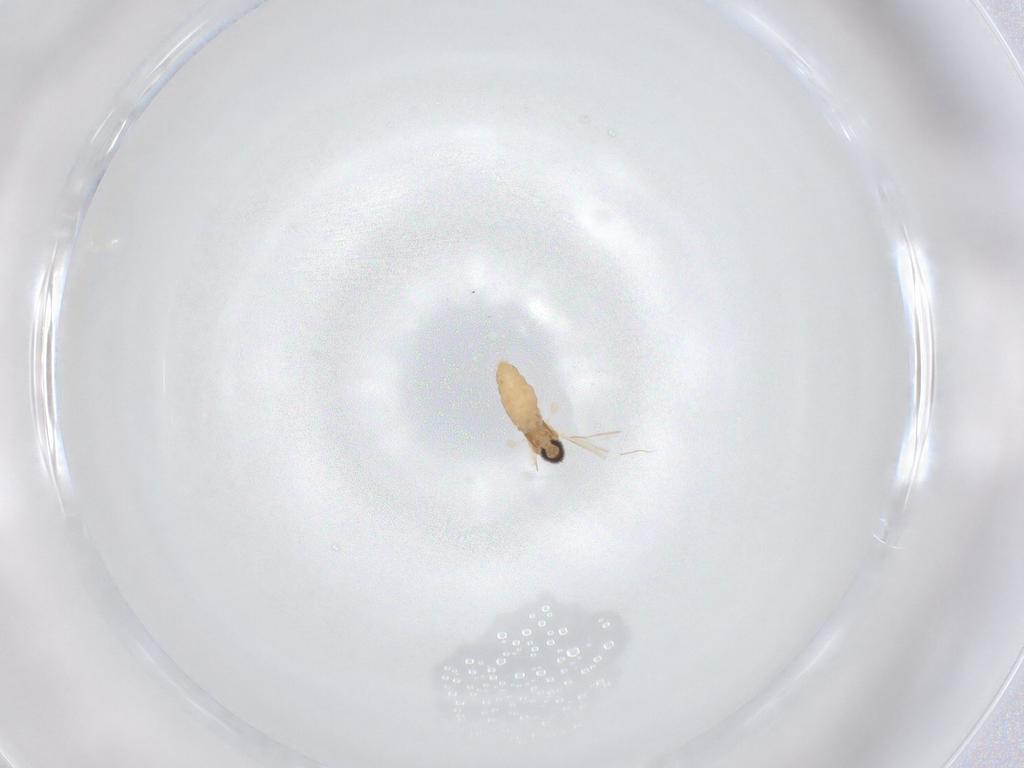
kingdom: Animalia
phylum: Arthropoda
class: Insecta
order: Diptera
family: Cecidomyiidae
